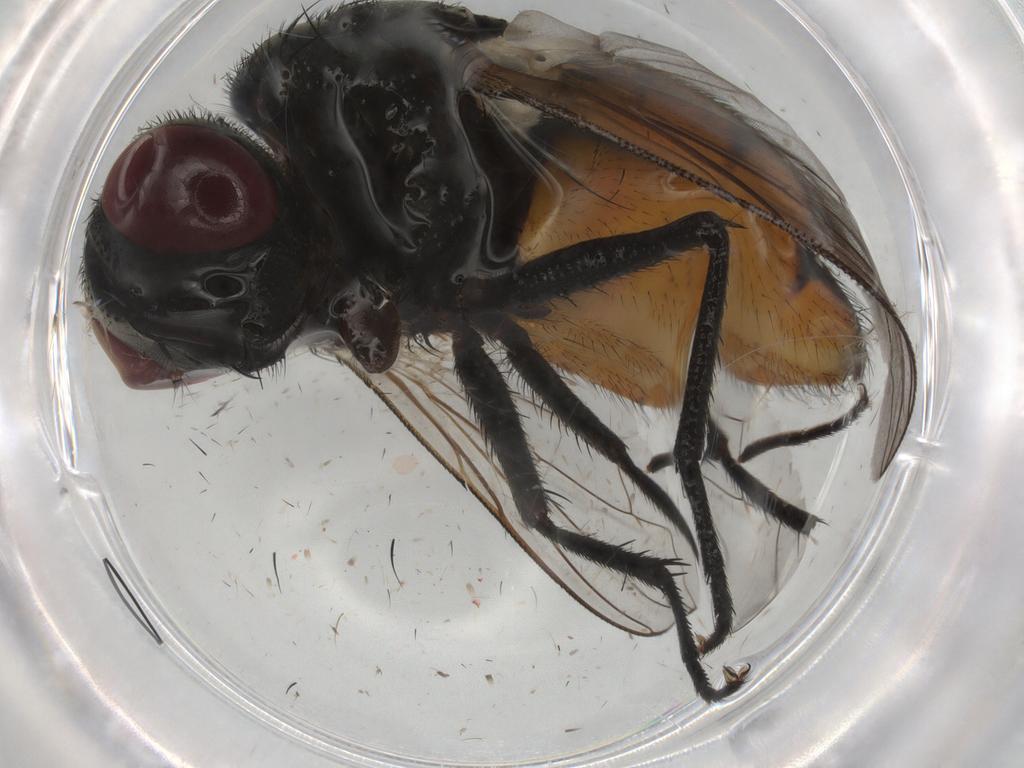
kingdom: Animalia
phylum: Arthropoda
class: Insecta
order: Diptera
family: Muscidae
